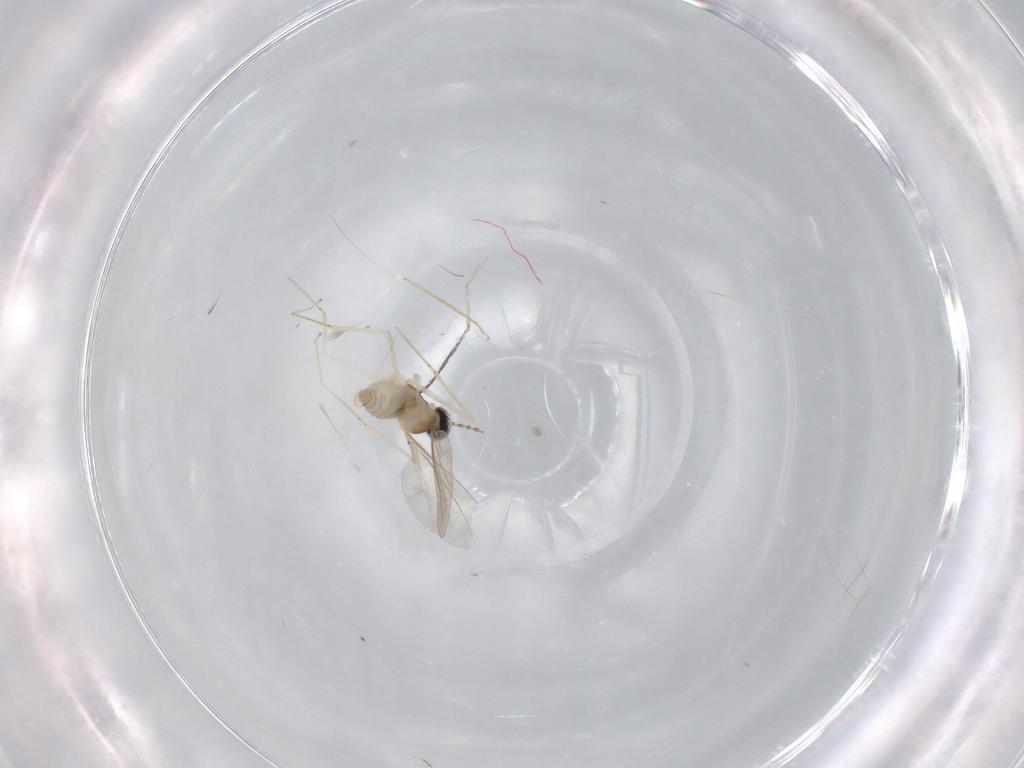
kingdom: Animalia
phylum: Arthropoda
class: Insecta
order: Diptera
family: Cecidomyiidae
